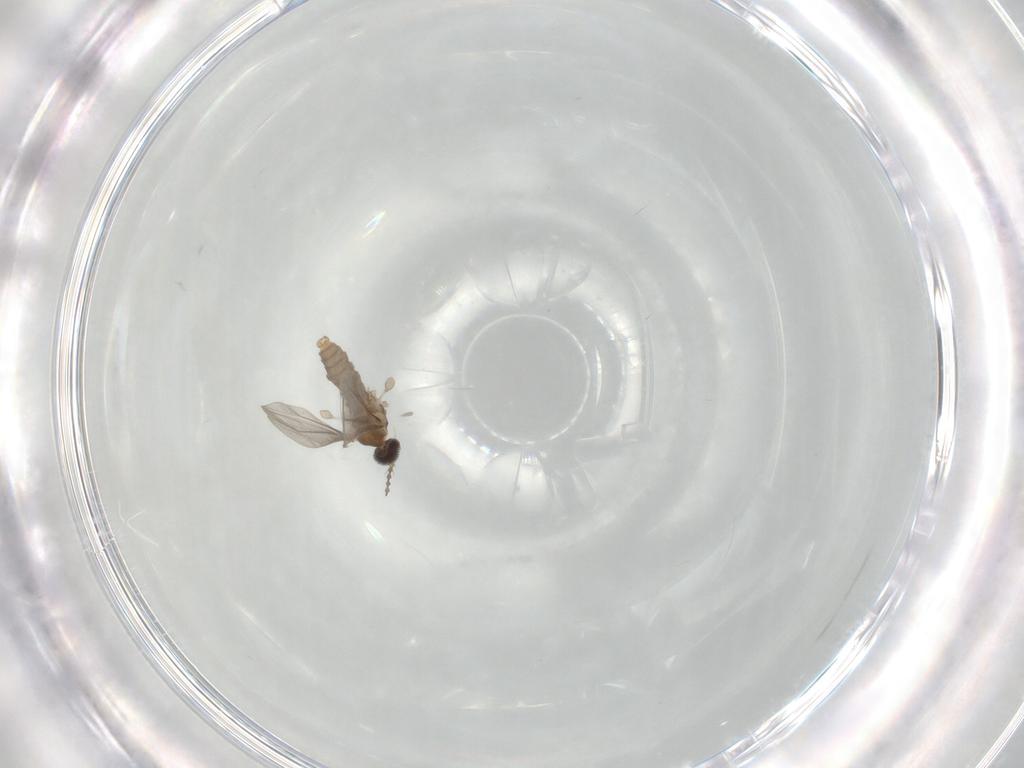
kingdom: Animalia
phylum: Arthropoda
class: Insecta
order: Diptera
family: Cecidomyiidae
